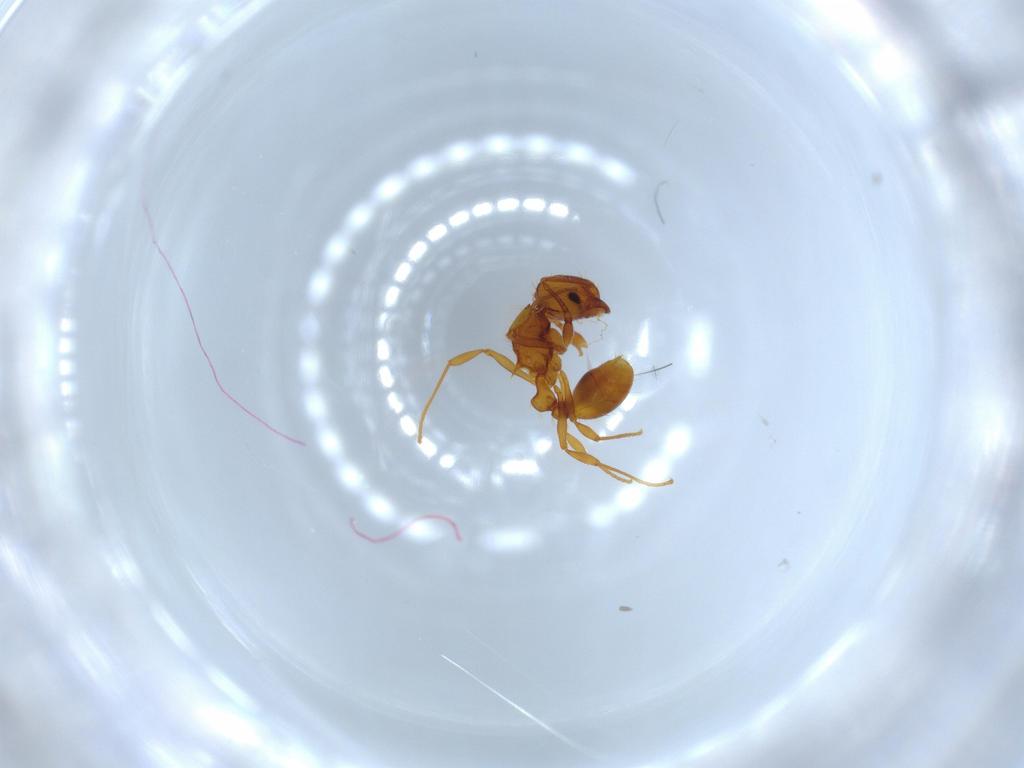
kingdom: Animalia
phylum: Arthropoda
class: Insecta
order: Hymenoptera
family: Formicidae
